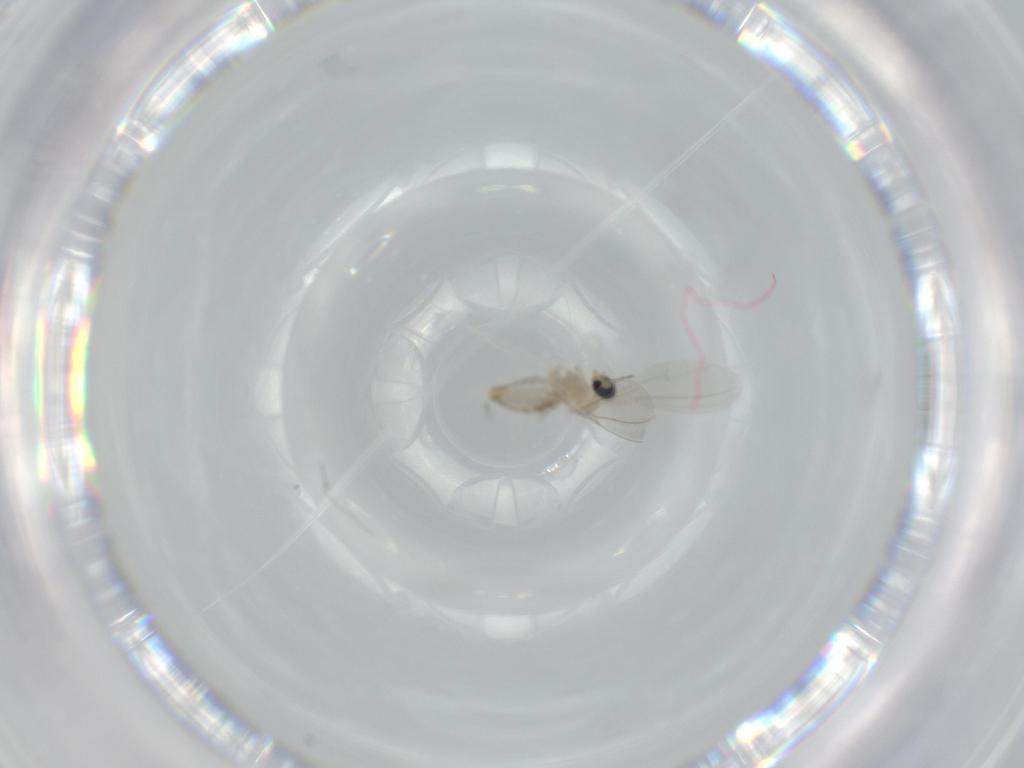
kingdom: Animalia
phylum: Arthropoda
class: Insecta
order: Diptera
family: Cecidomyiidae
